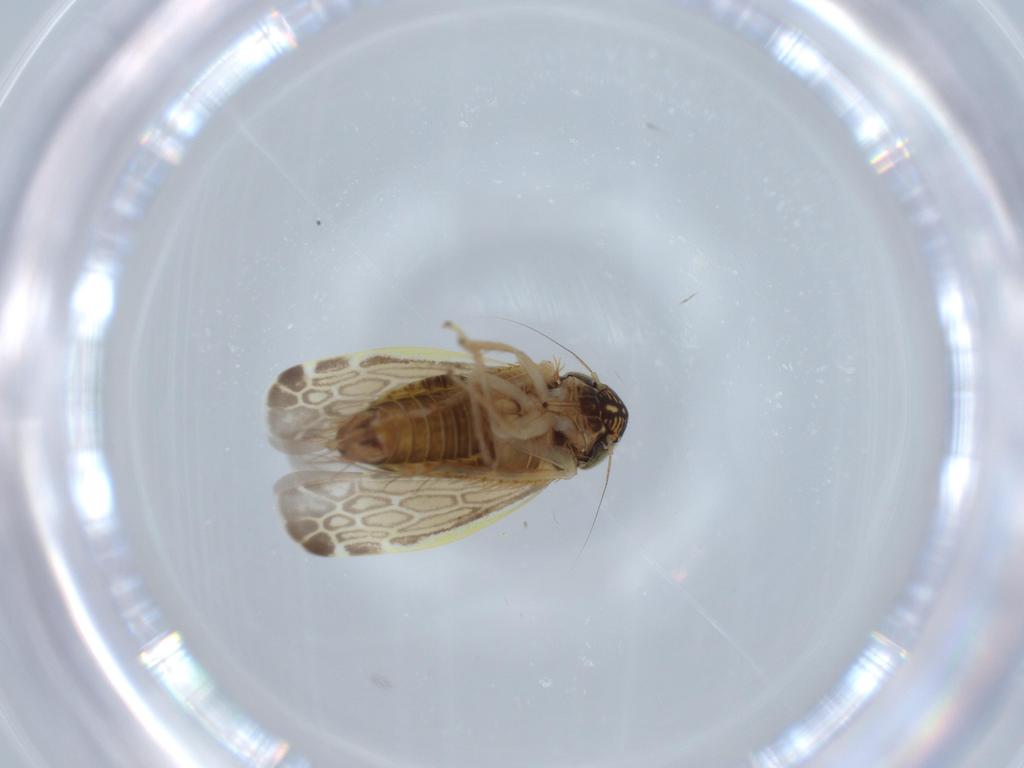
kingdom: Animalia
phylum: Arthropoda
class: Insecta
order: Hemiptera
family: Cicadellidae
